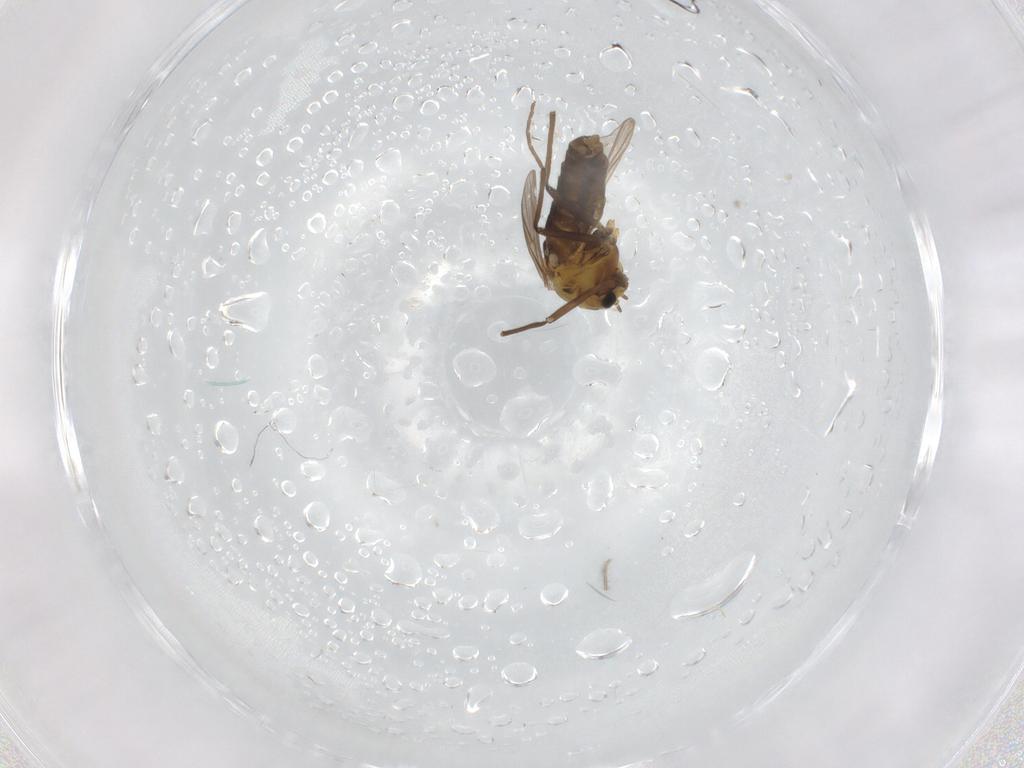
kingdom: Animalia
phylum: Arthropoda
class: Insecta
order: Diptera
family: Chironomidae
